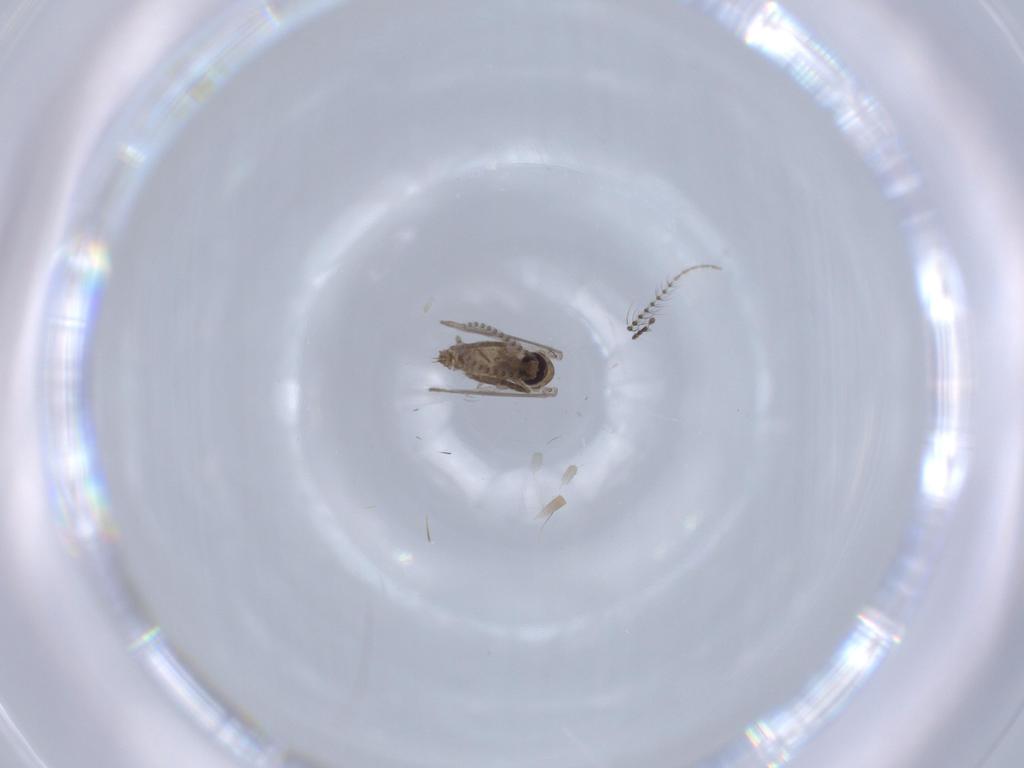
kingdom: Animalia
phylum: Arthropoda
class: Insecta
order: Diptera
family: Ceratopogonidae
